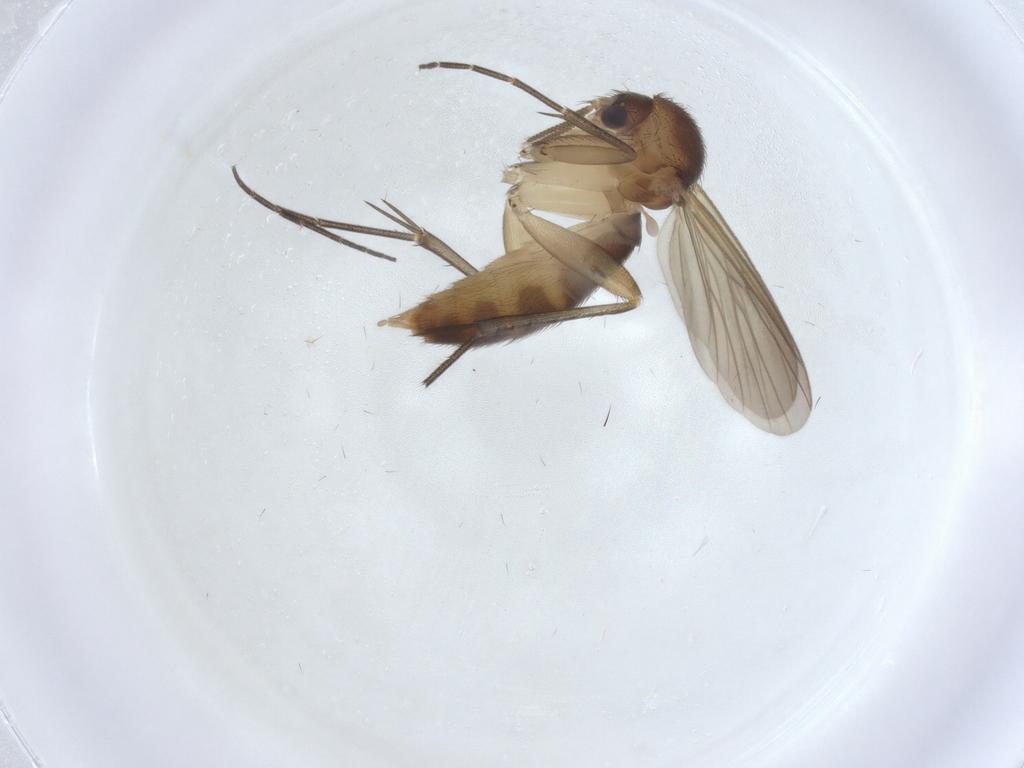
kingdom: Animalia
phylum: Arthropoda
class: Insecta
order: Diptera
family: Mycetophilidae
